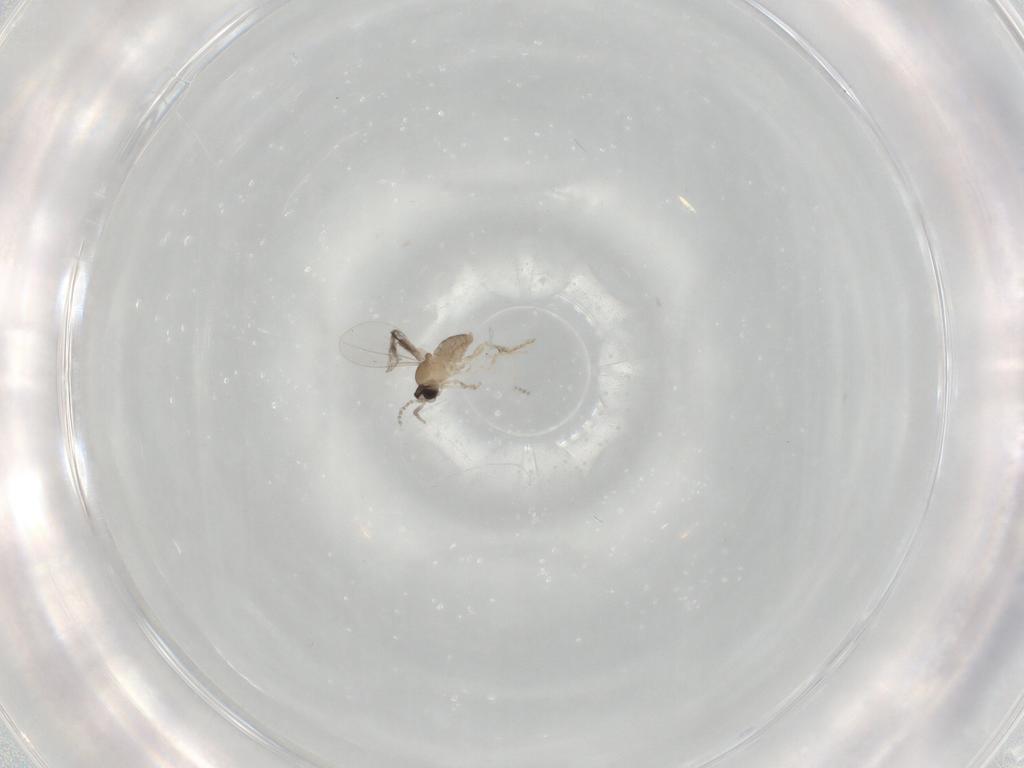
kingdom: Animalia
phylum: Arthropoda
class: Insecta
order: Diptera
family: Cecidomyiidae
